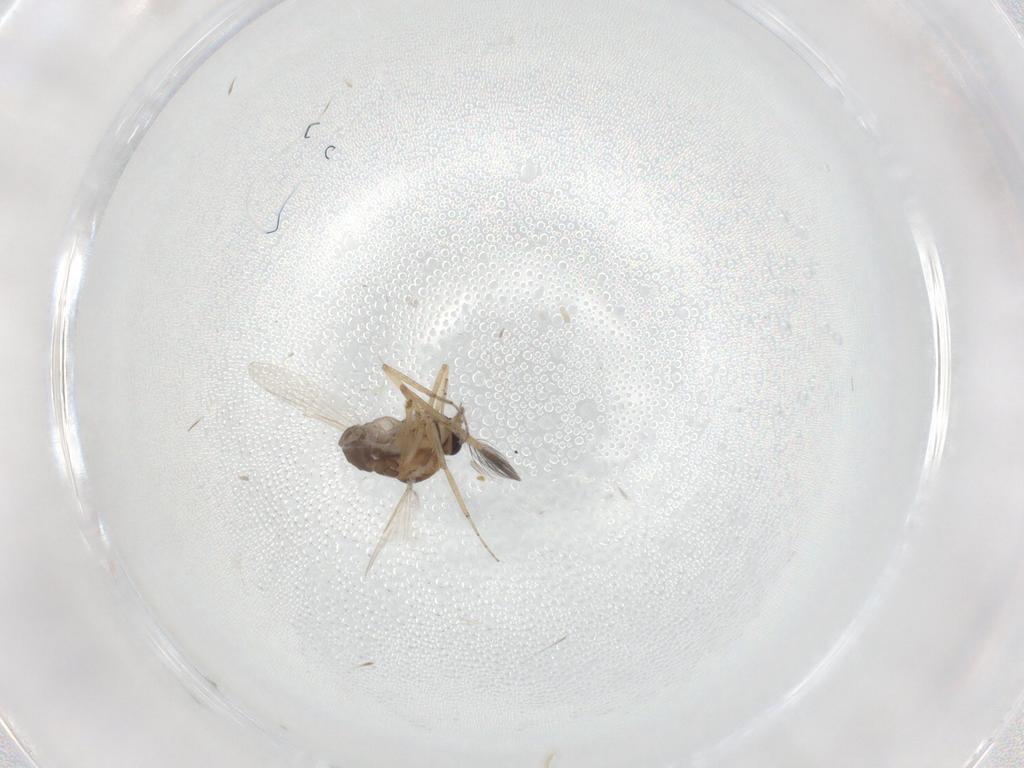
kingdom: Animalia
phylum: Arthropoda
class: Insecta
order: Diptera
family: Ceratopogonidae
